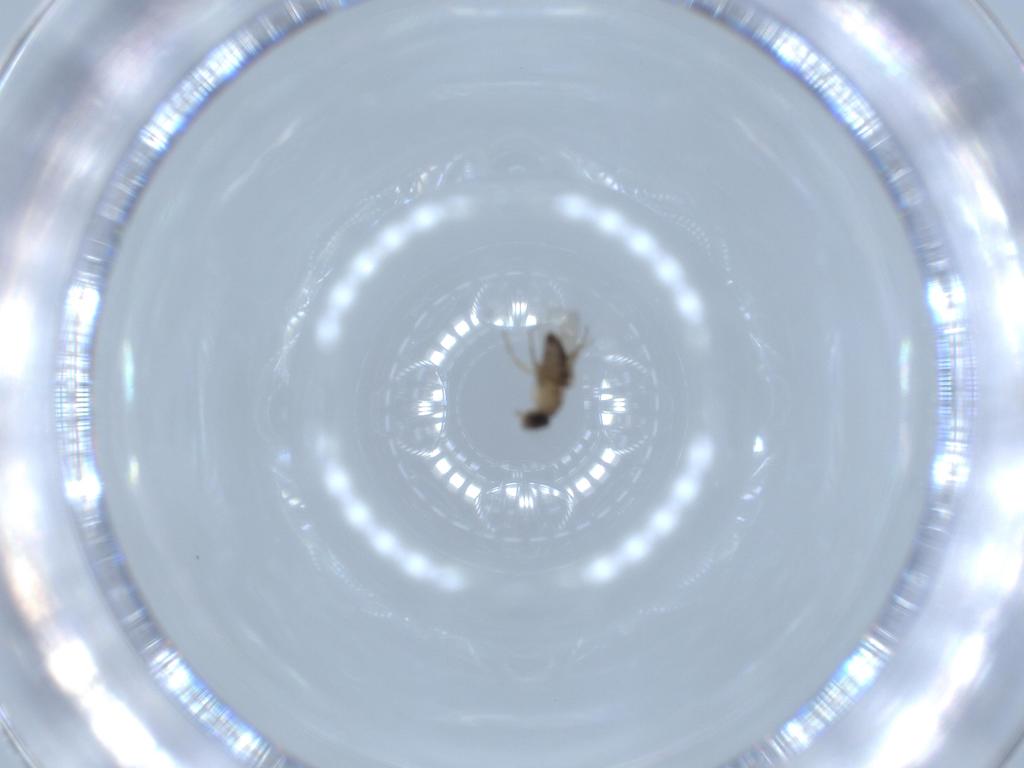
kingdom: Animalia
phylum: Arthropoda
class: Insecta
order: Diptera
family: Phoridae
